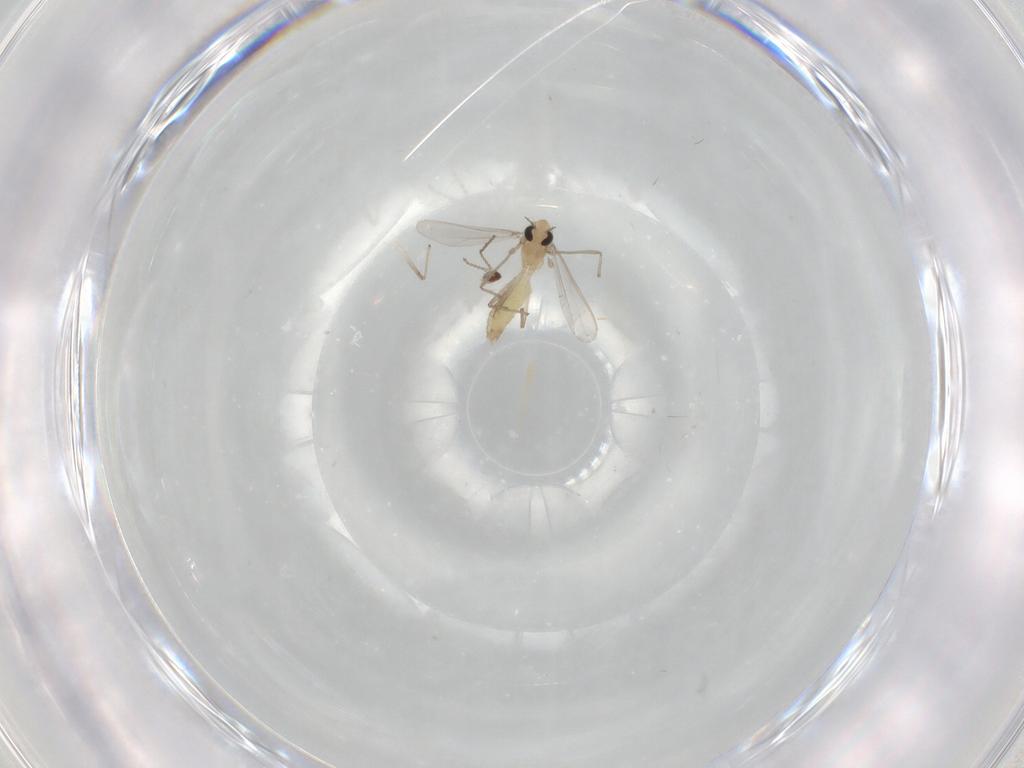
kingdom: Animalia
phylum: Arthropoda
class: Insecta
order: Diptera
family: Chironomidae
